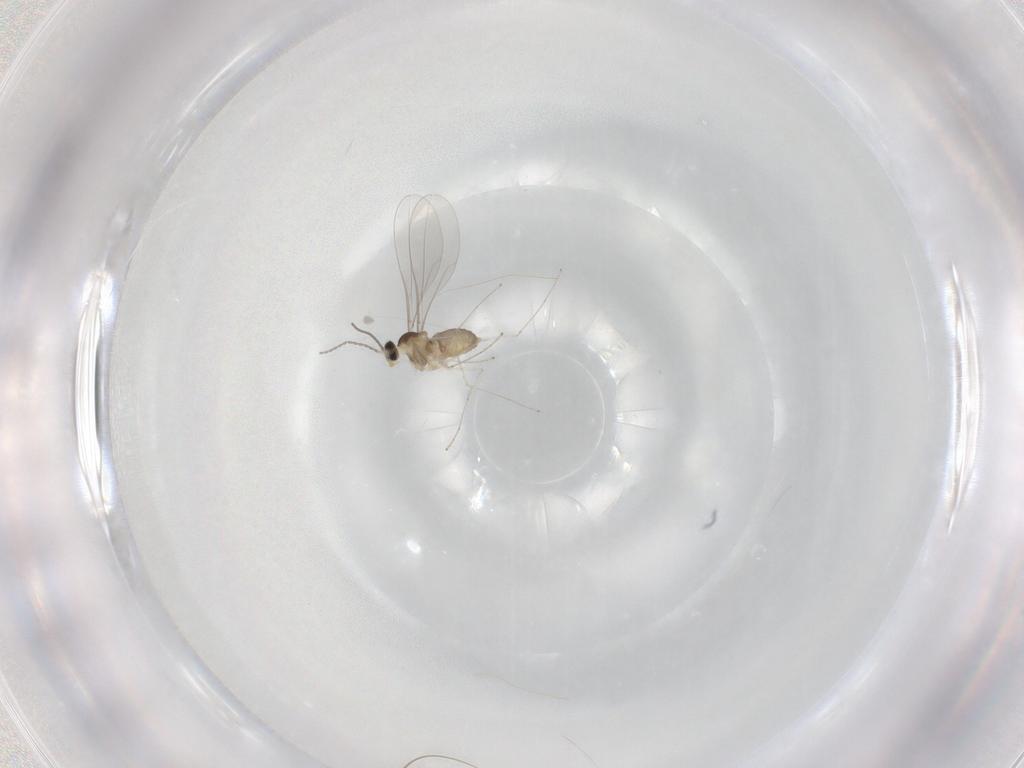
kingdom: Animalia
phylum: Arthropoda
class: Insecta
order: Diptera
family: Cecidomyiidae
